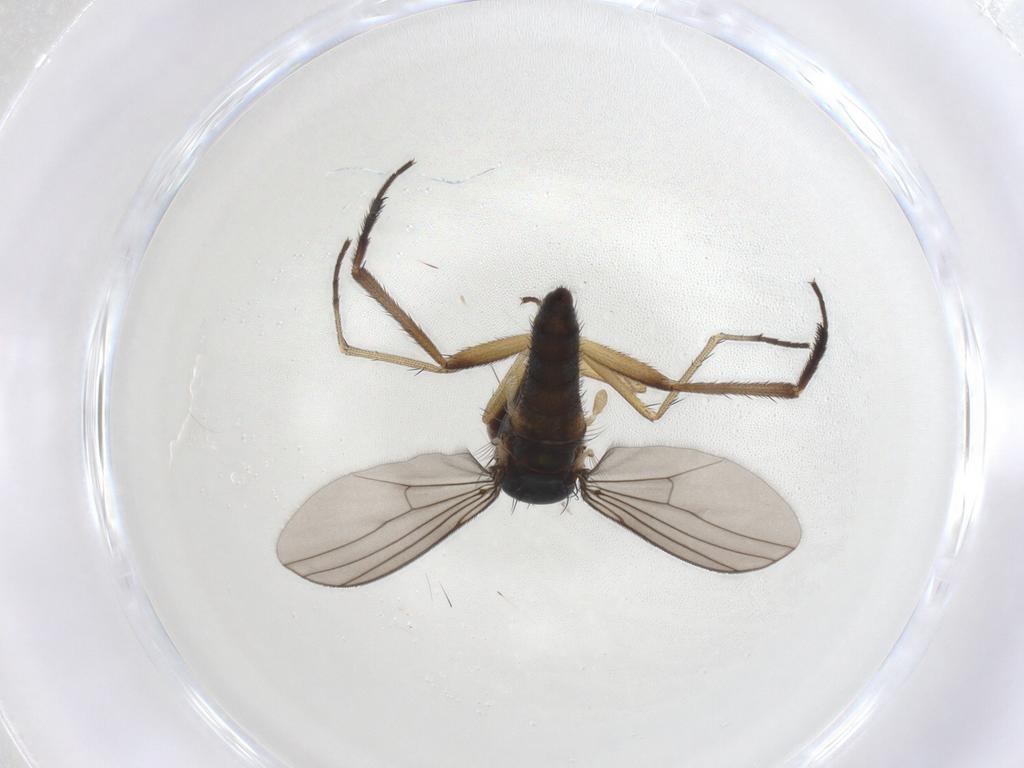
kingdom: Animalia
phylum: Arthropoda
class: Insecta
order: Diptera
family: Dolichopodidae
